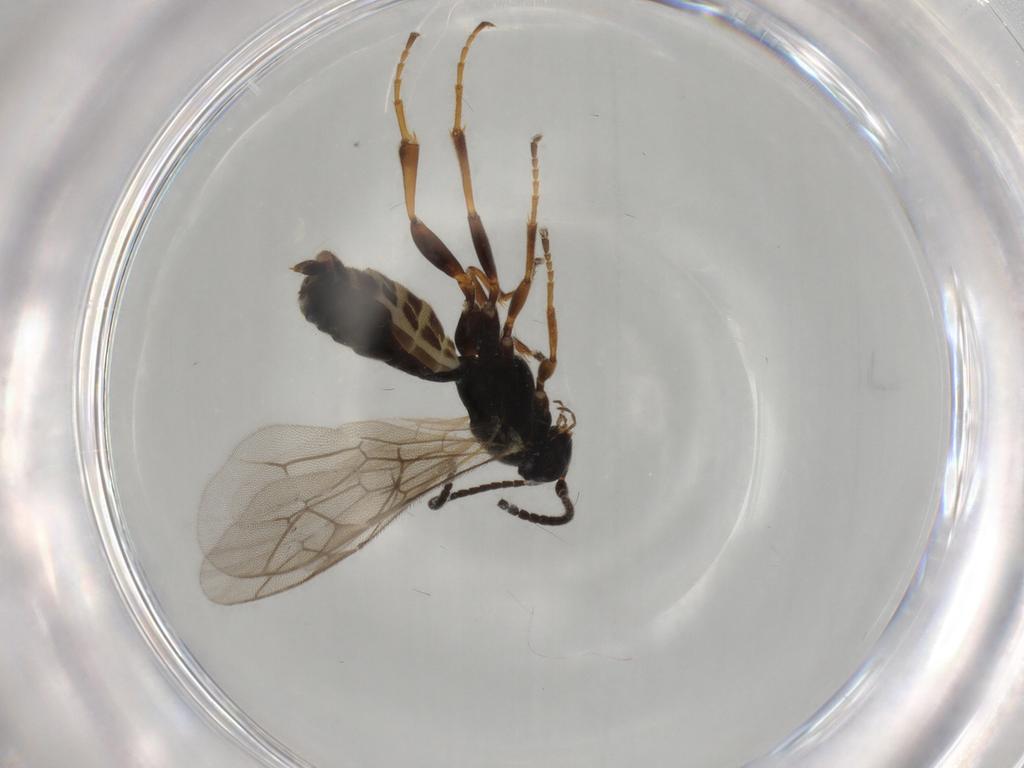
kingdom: Animalia
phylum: Arthropoda
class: Insecta
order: Hymenoptera
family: Ichneumonidae
